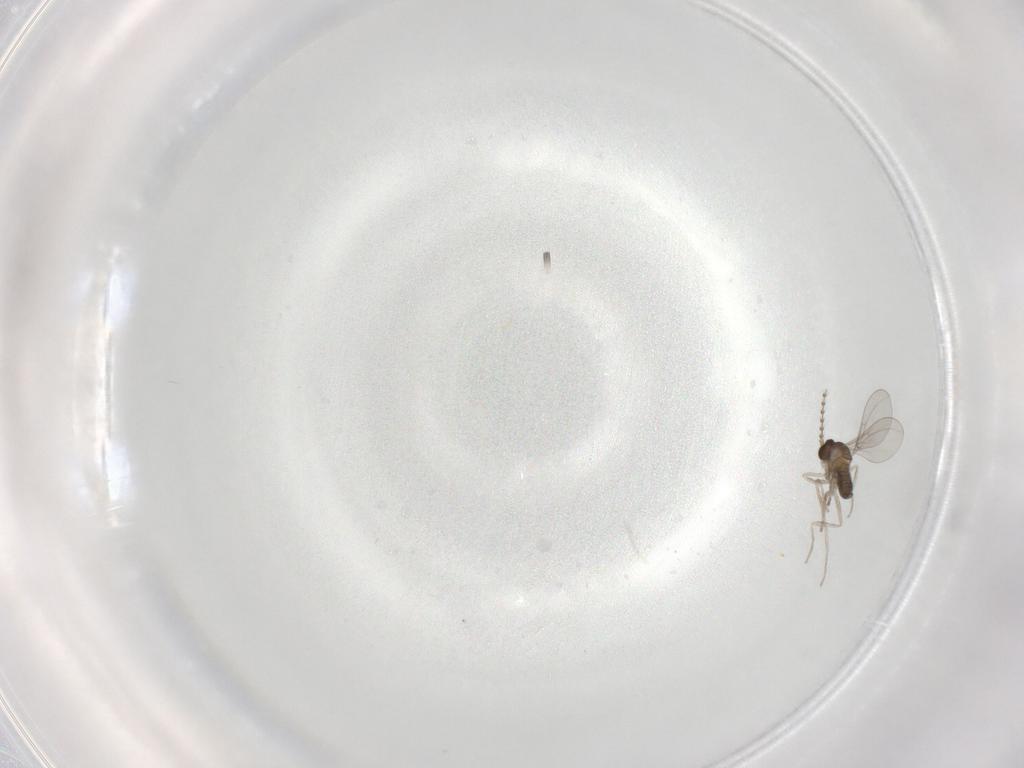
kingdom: Animalia
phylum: Arthropoda
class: Insecta
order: Diptera
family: Cecidomyiidae
